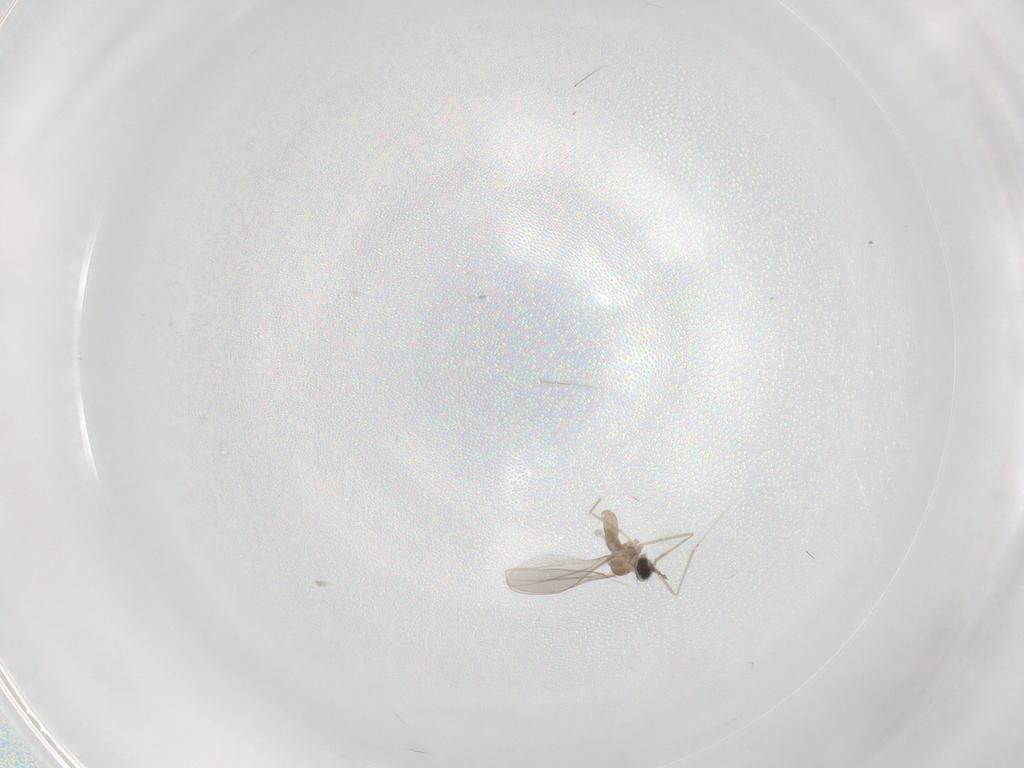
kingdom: Animalia
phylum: Arthropoda
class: Insecta
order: Diptera
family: Cecidomyiidae
